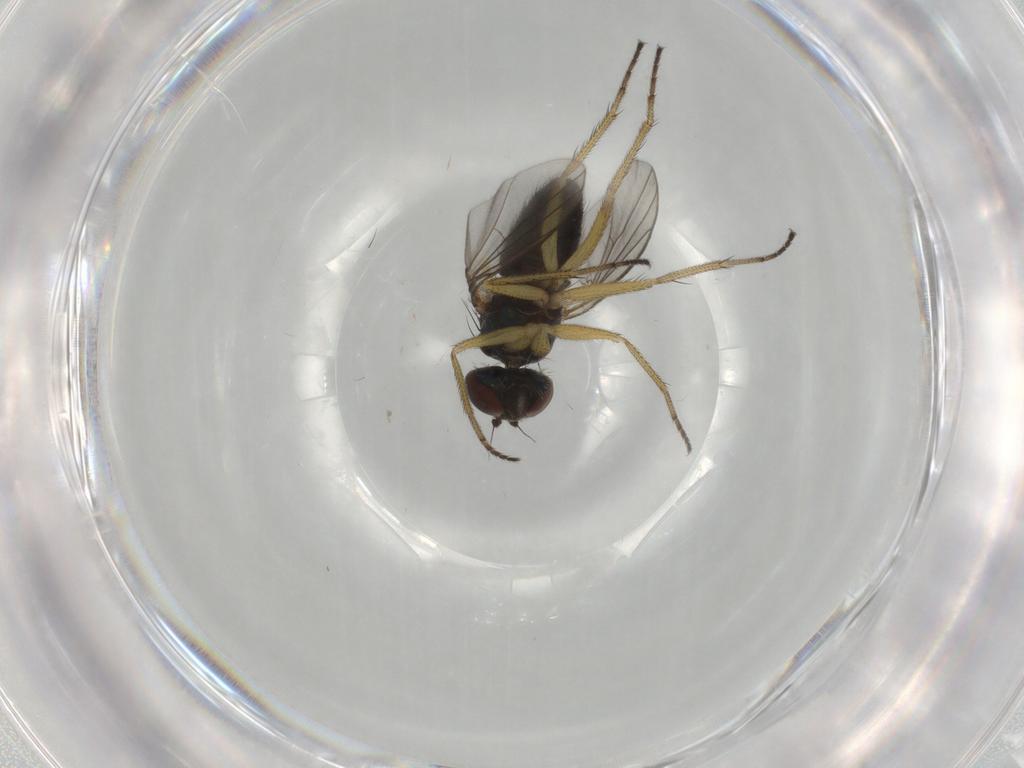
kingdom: Animalia
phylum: Arthropoda
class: Insecta
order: Diptera
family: Dolichopodidae
